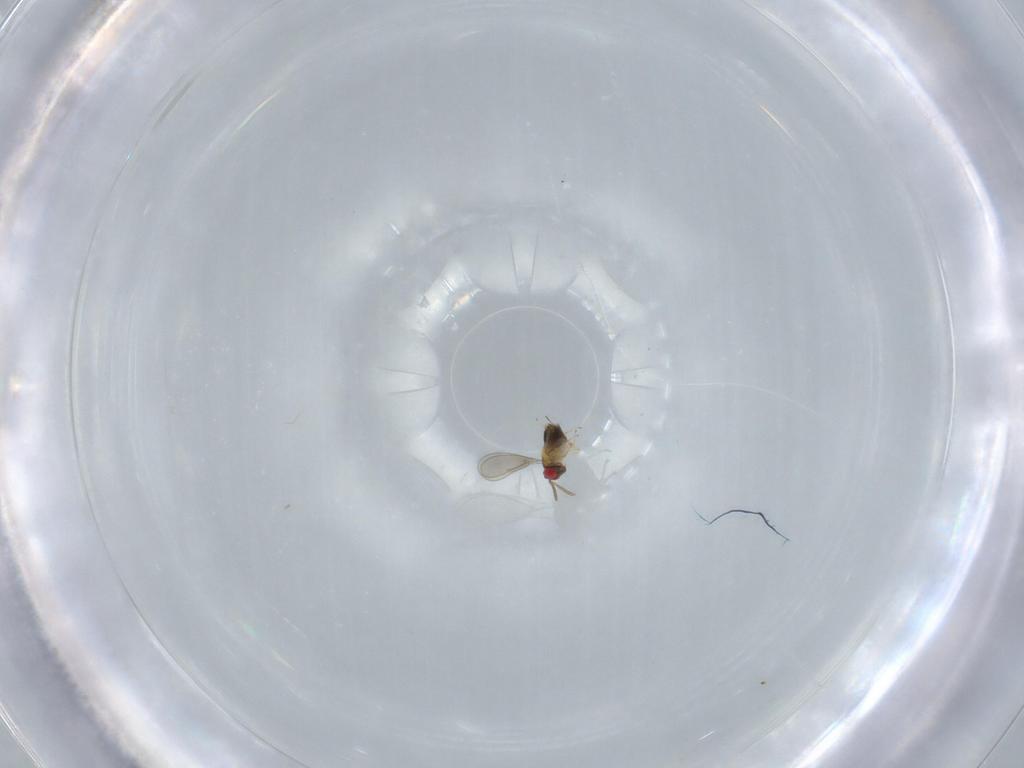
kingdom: Animalia
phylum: Arthropoda
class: Insecta
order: Hymenoptera
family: Aphelinidae
